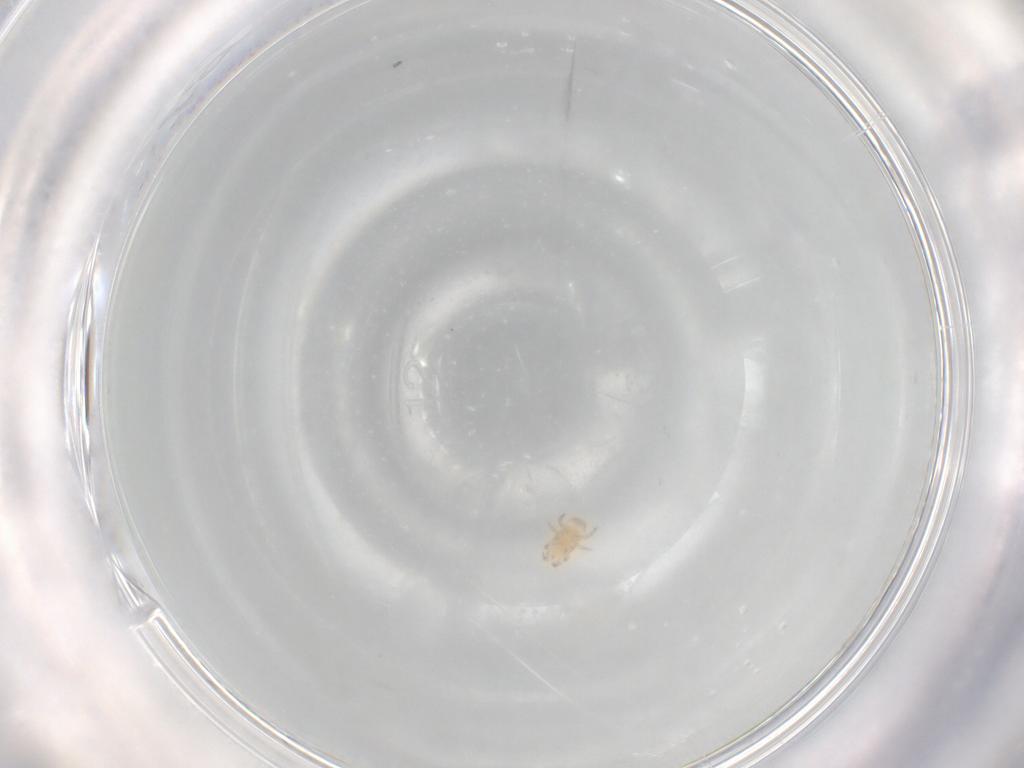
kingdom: Animalia
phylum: Arthropoda
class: Arachnida
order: Mesostigmata
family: Digamasellidae
